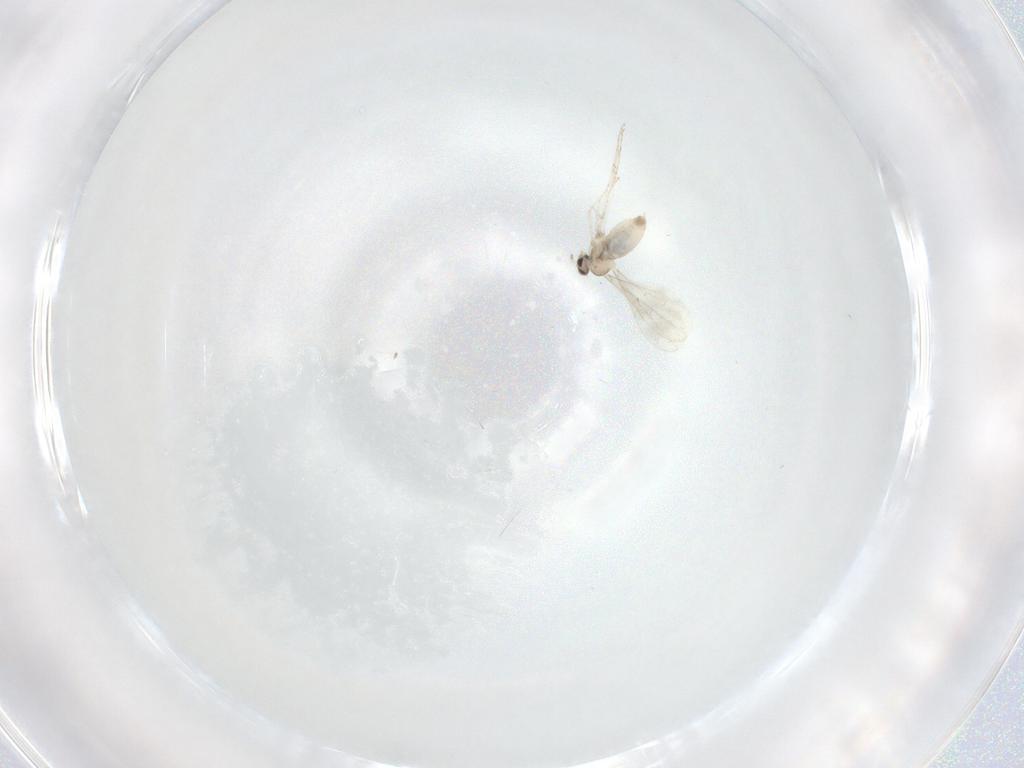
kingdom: Animalia
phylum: Arthropoda
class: Insecta
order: Diptera
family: Cecidomyiidae
